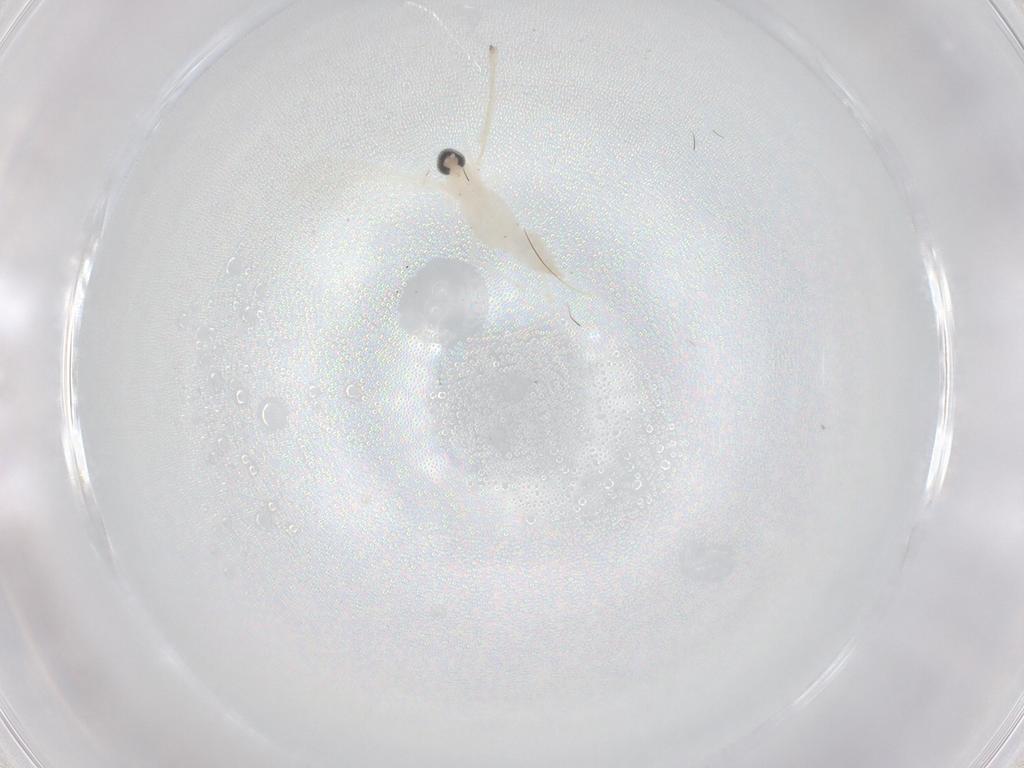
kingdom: Animalia
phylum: Arthropoda
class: Insecta
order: Diptera
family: Cecidomyiidae
